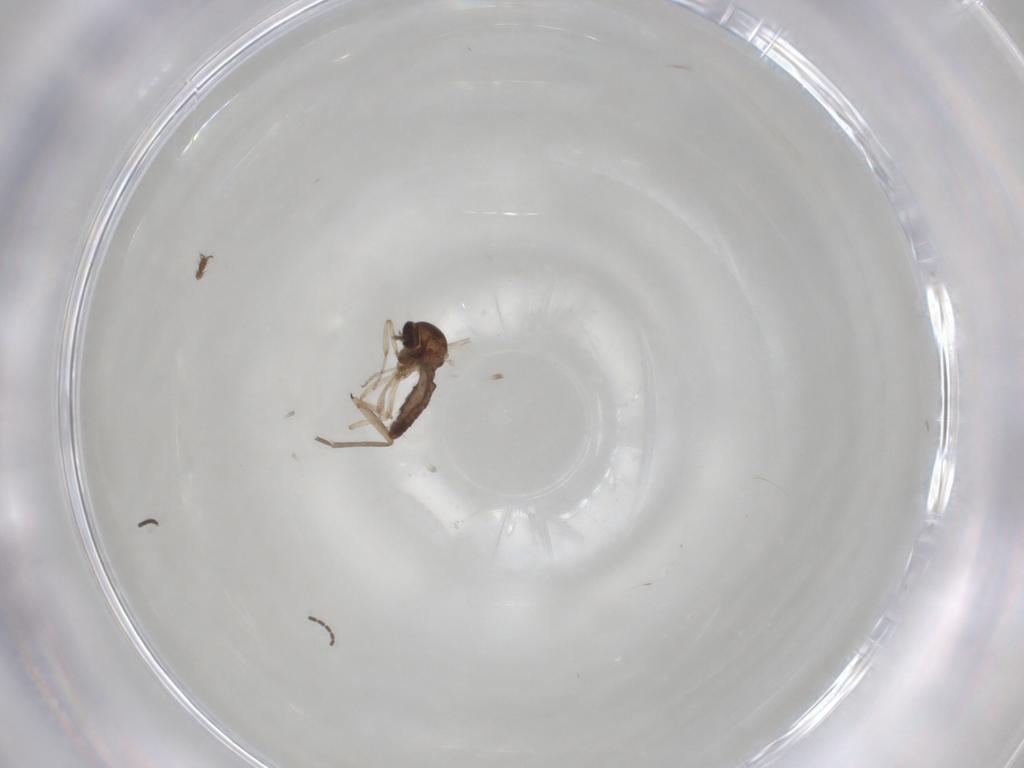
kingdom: Animalia
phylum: Arthropoda
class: Insecta
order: Diptera
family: Ceratopogonidae
